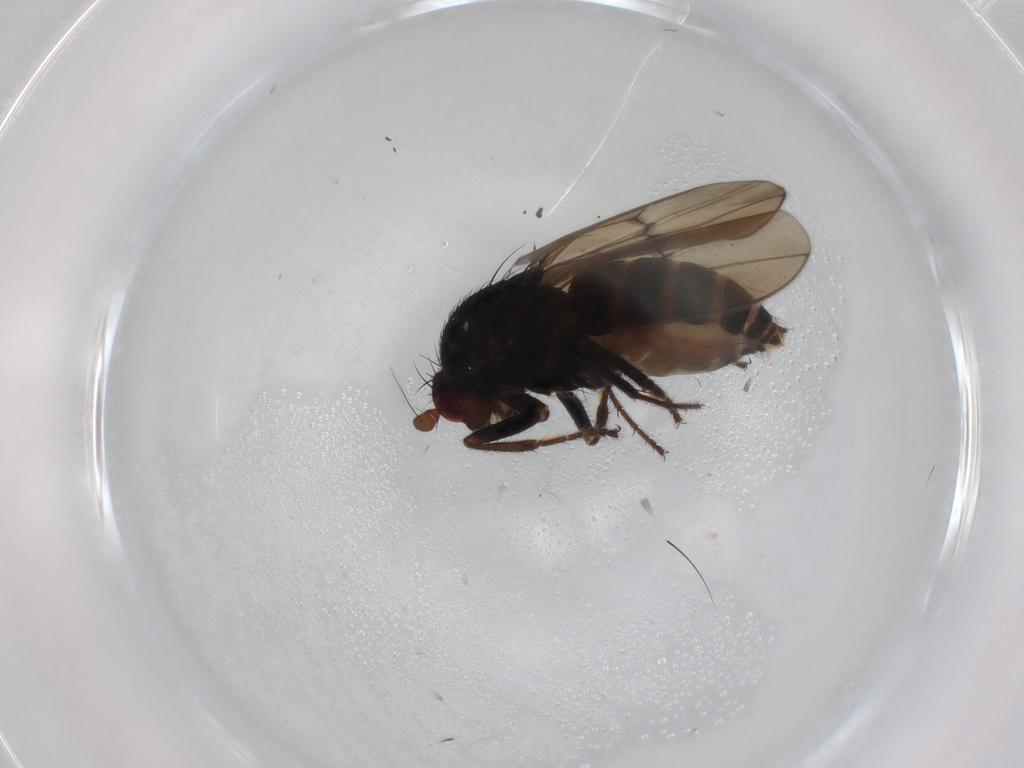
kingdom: Animalia
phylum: Arthropoda
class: Insecta
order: Diptera
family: Sphaeroceridae
